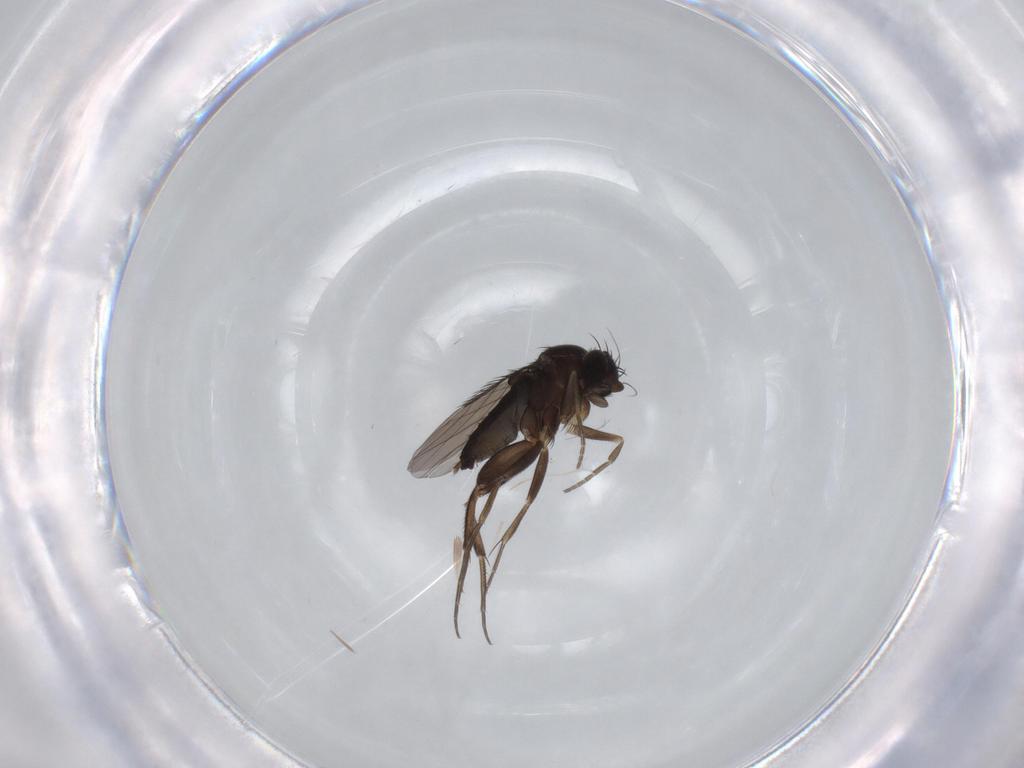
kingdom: Animalia
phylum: Arthropoda
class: Insecta
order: Diptera
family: Phoridae
